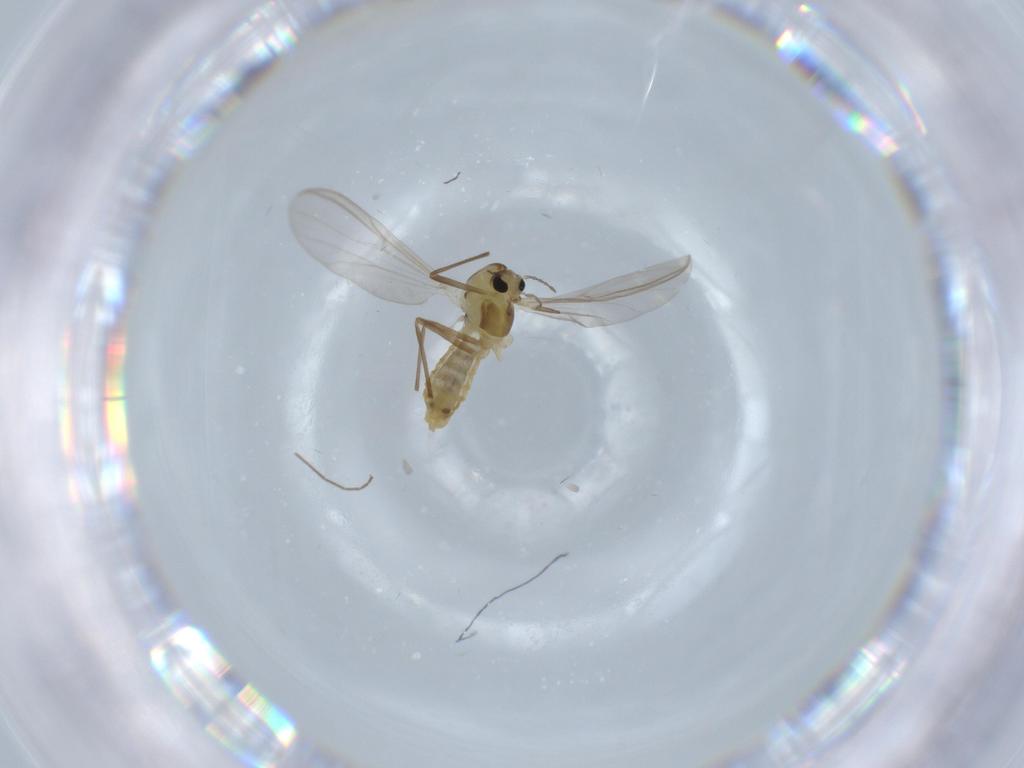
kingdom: Animalia
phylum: Arthropoda
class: Insecta
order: Diptera
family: Chironomidae
